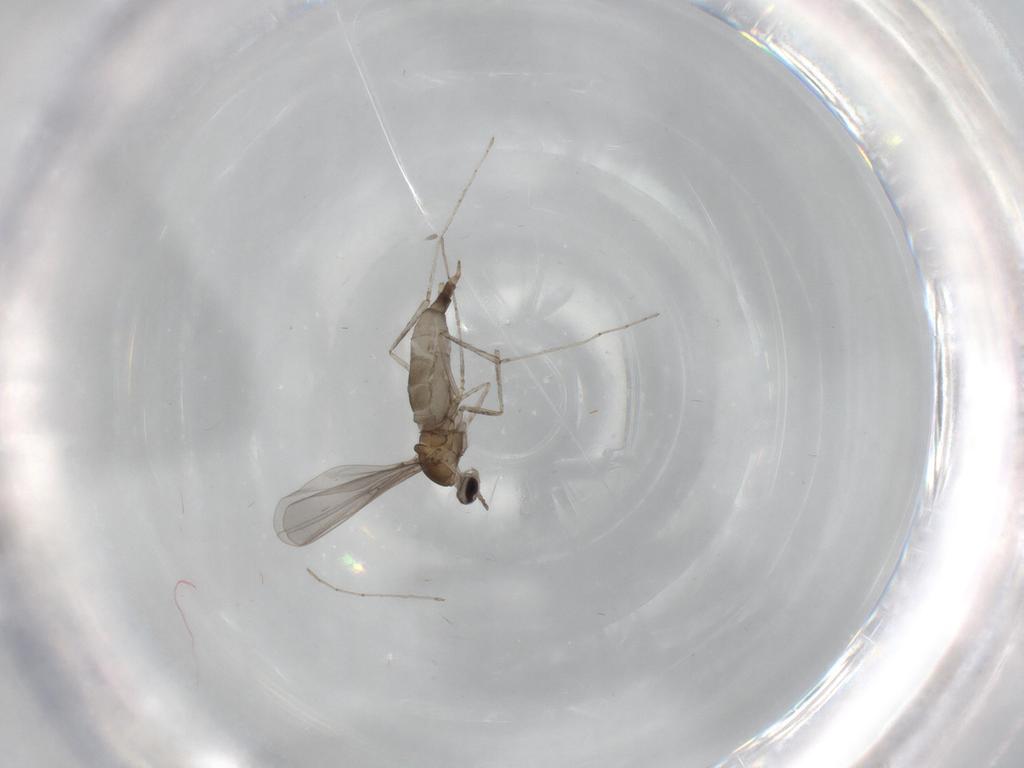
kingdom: Animalia
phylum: Arthropoda
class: Insecta
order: Diptera
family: Cecidomyiidae
